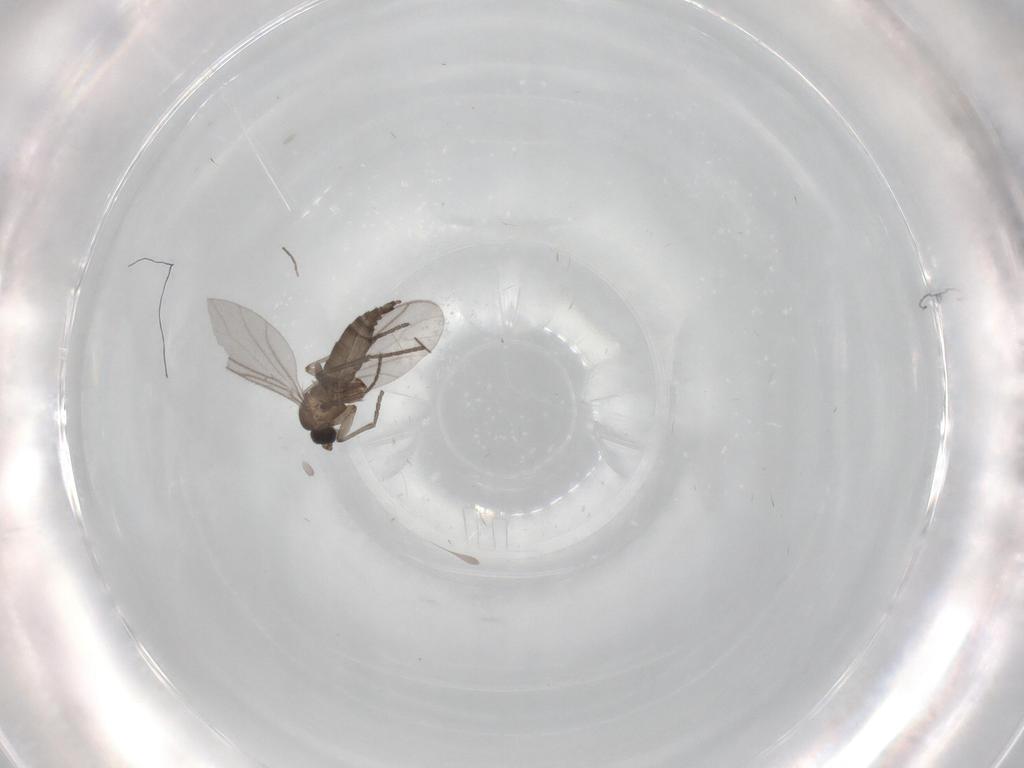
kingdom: Animalia
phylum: Arthropoda
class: Insecta
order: Diptera
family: Sciaridae
